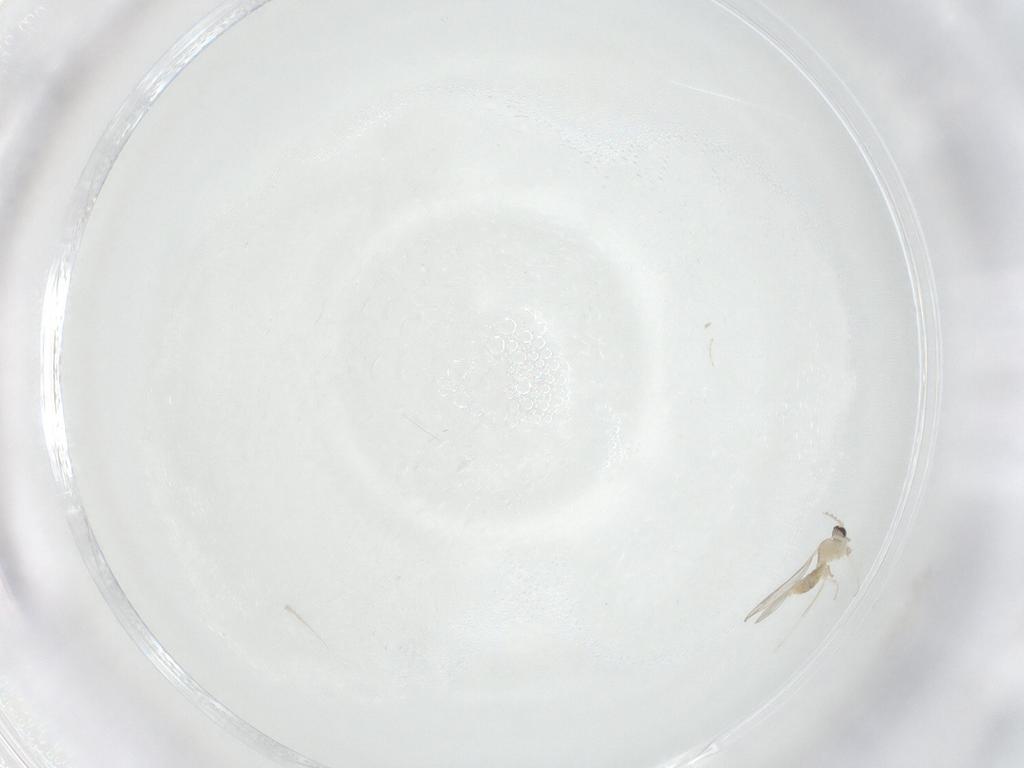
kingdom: Animalia
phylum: Arthropoda
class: Insecta
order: Diptera
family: Cecidomyiidae
